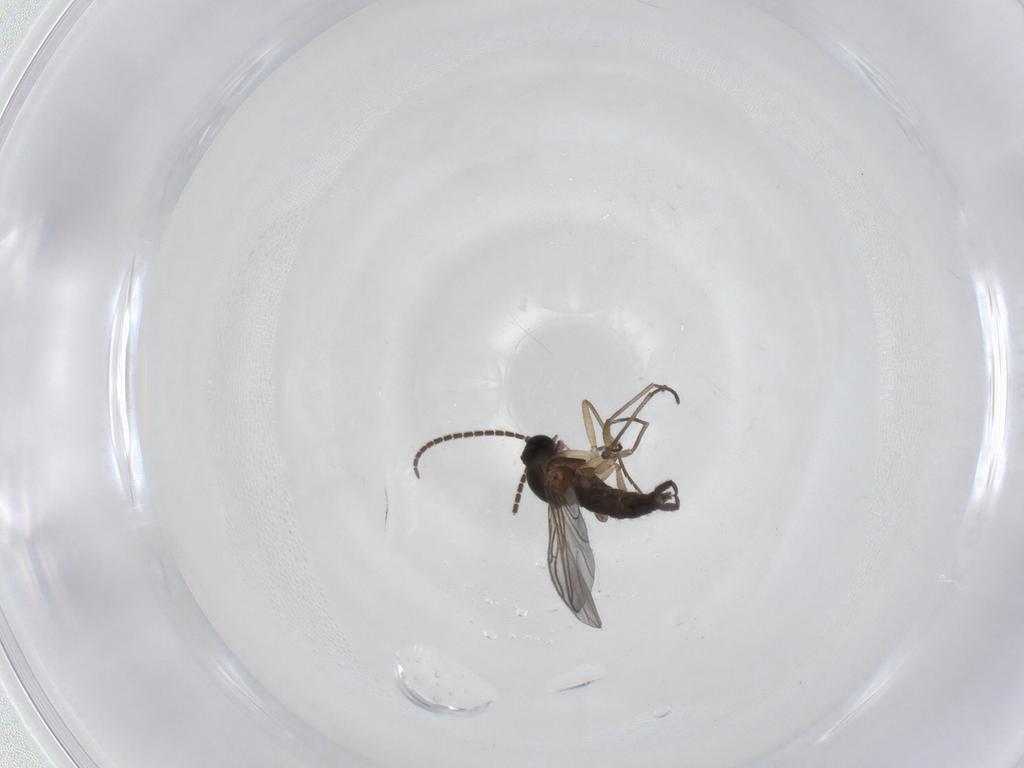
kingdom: Animalia
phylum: Arthropoda
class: Insecta
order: Diptera
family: Sciaridae
